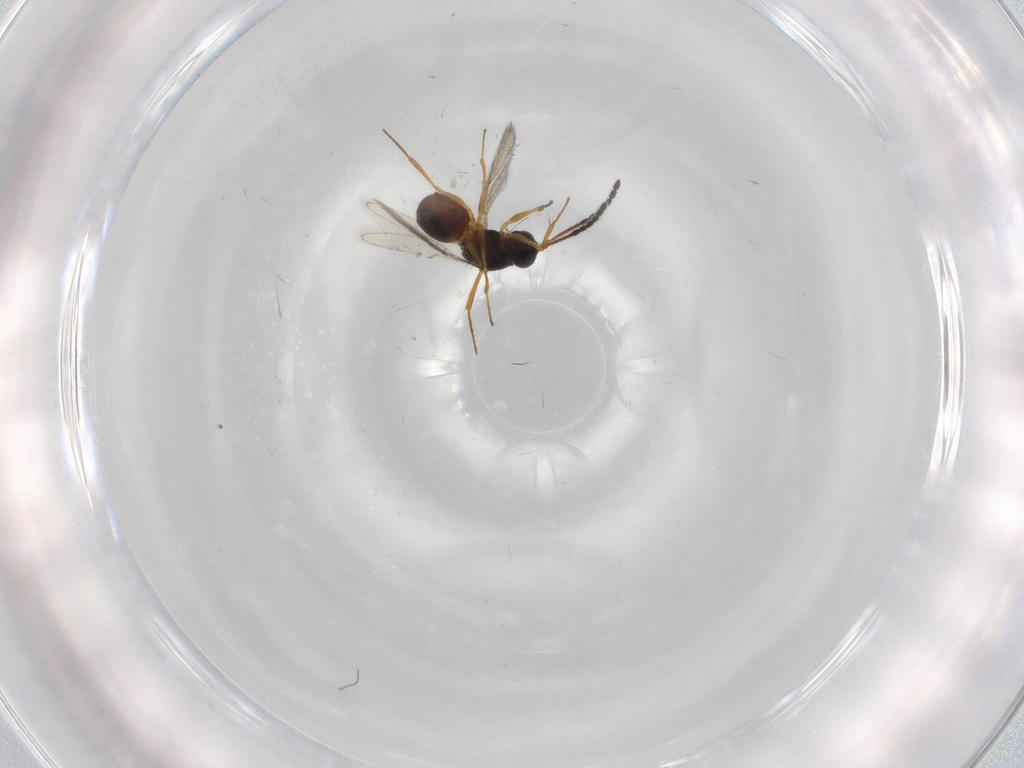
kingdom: Animalia
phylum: Arthropoda
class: Insecta
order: Hymenoptera
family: Figitidae
